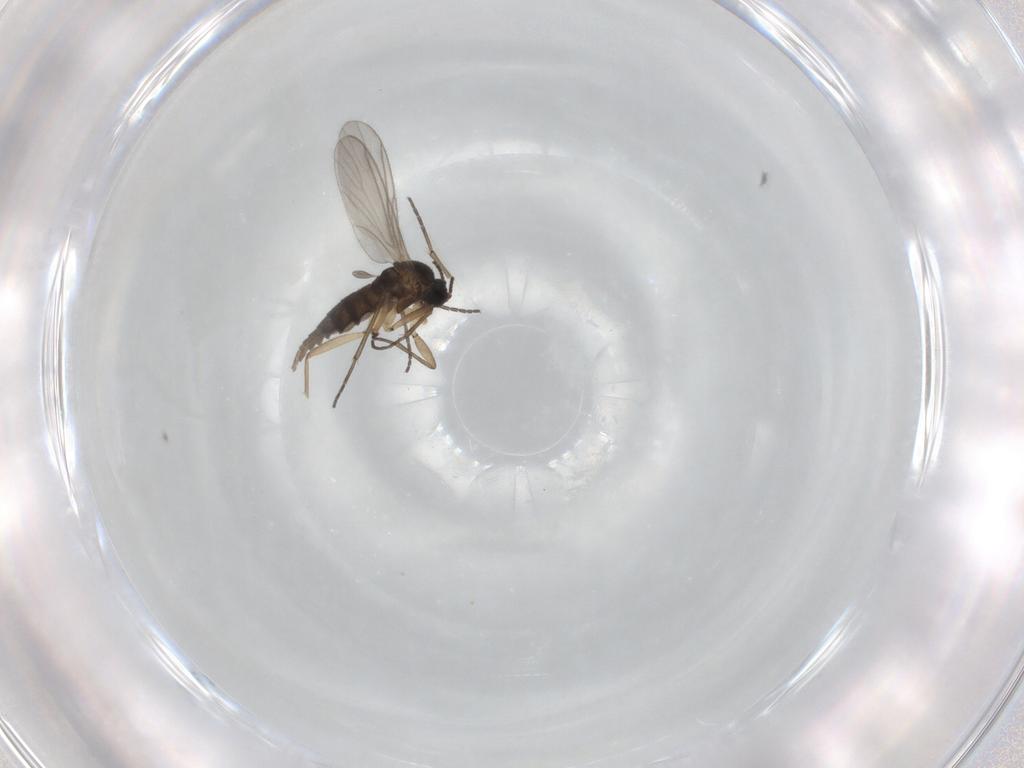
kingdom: Animalia
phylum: Arthropoda
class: Insecta
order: Diptera
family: Sciaridae
